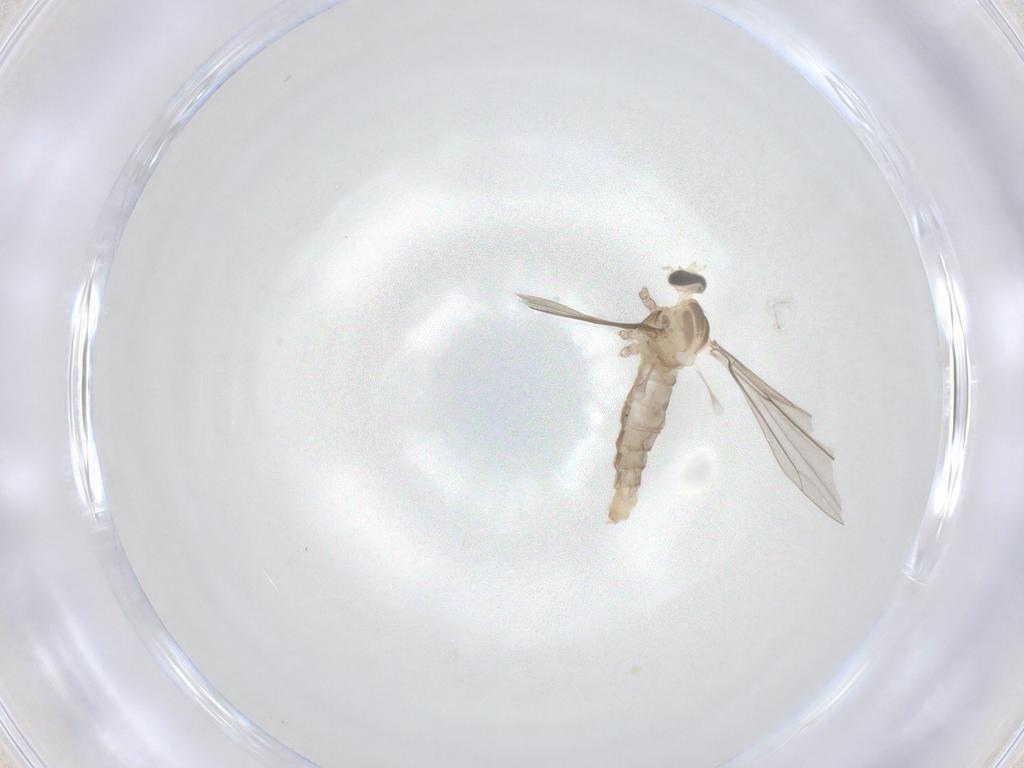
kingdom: Animalia
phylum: Arthropoda
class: Insecta
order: Diptera
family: Cecidomyiidae
